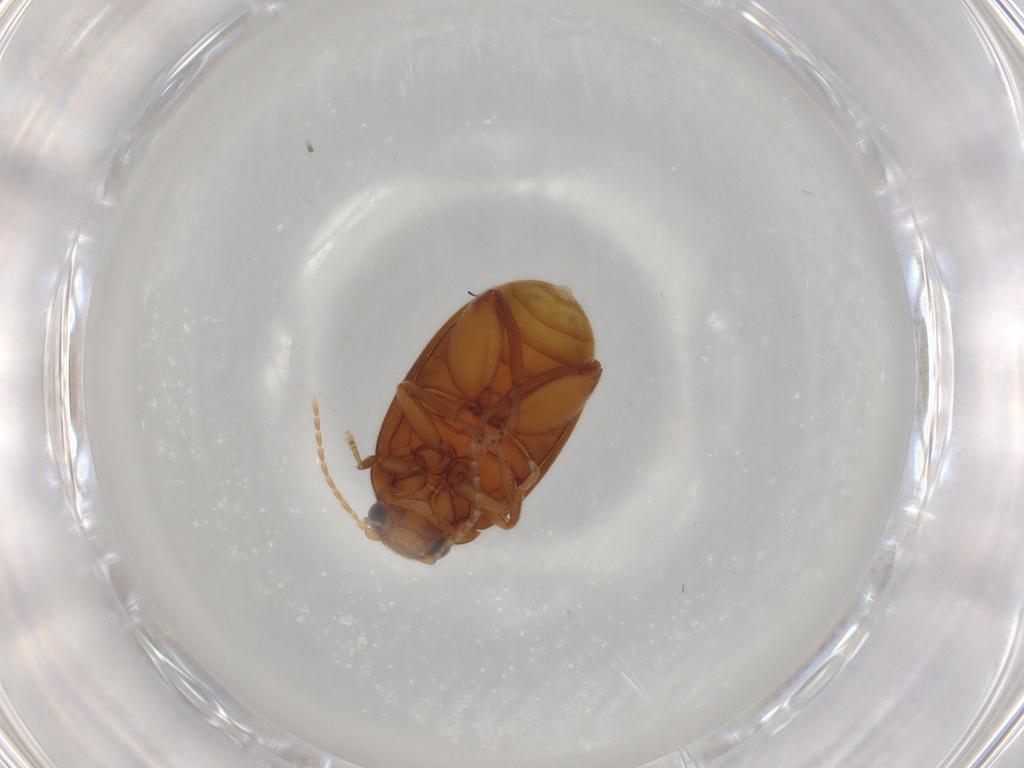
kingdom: Animalia
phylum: Arthropoda
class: Insecta
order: Coleoptera
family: Scirtidae
